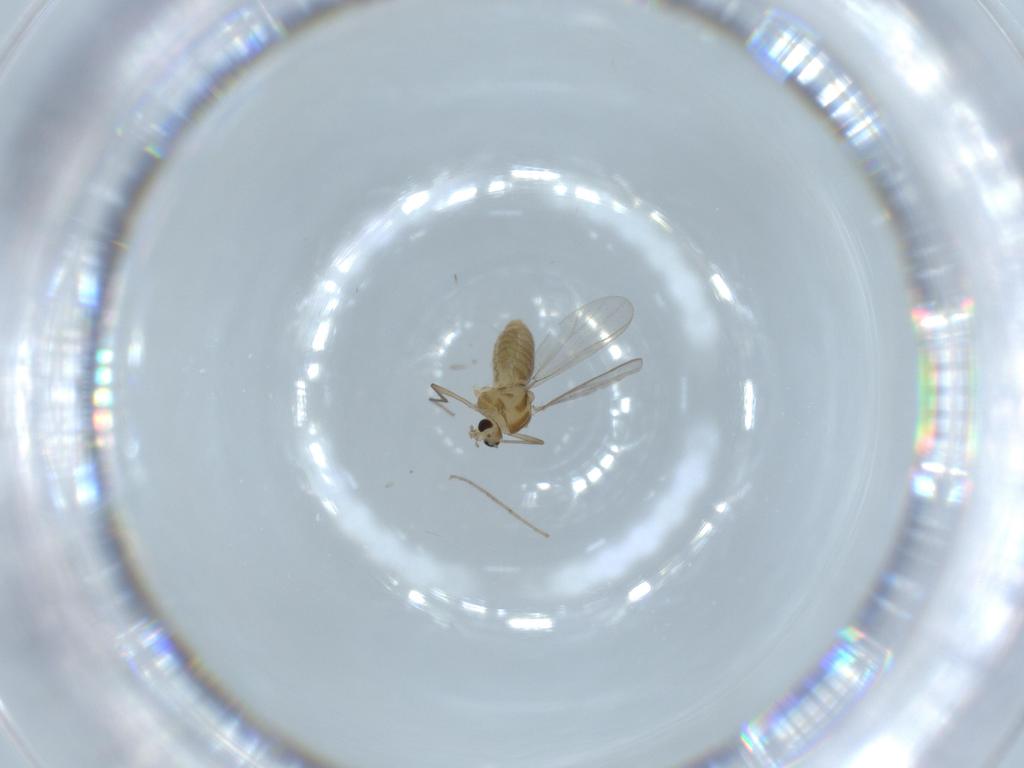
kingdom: Animalia
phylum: Arthropoda
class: Insecta
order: Diptera
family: Chironomidae
